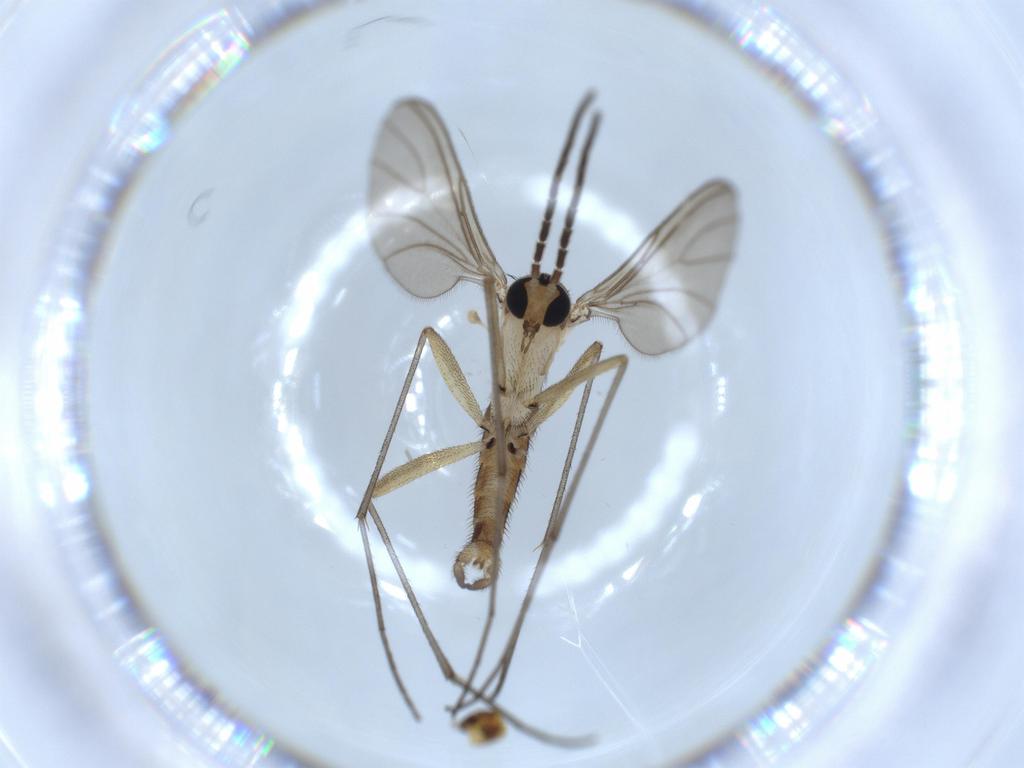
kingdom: Animalia
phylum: Arthropoda
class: Insecta
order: Diptera
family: Sciaridae
